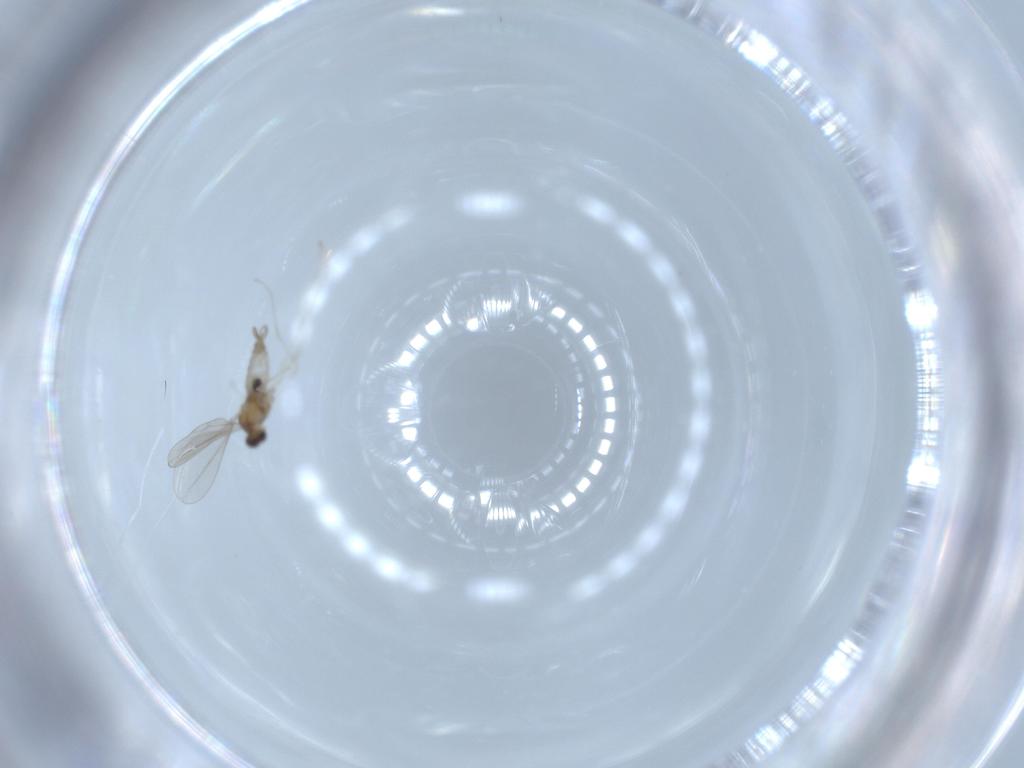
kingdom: Animalia
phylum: Arthropoda
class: Insecta
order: Diptera
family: Cecidomyiidae
